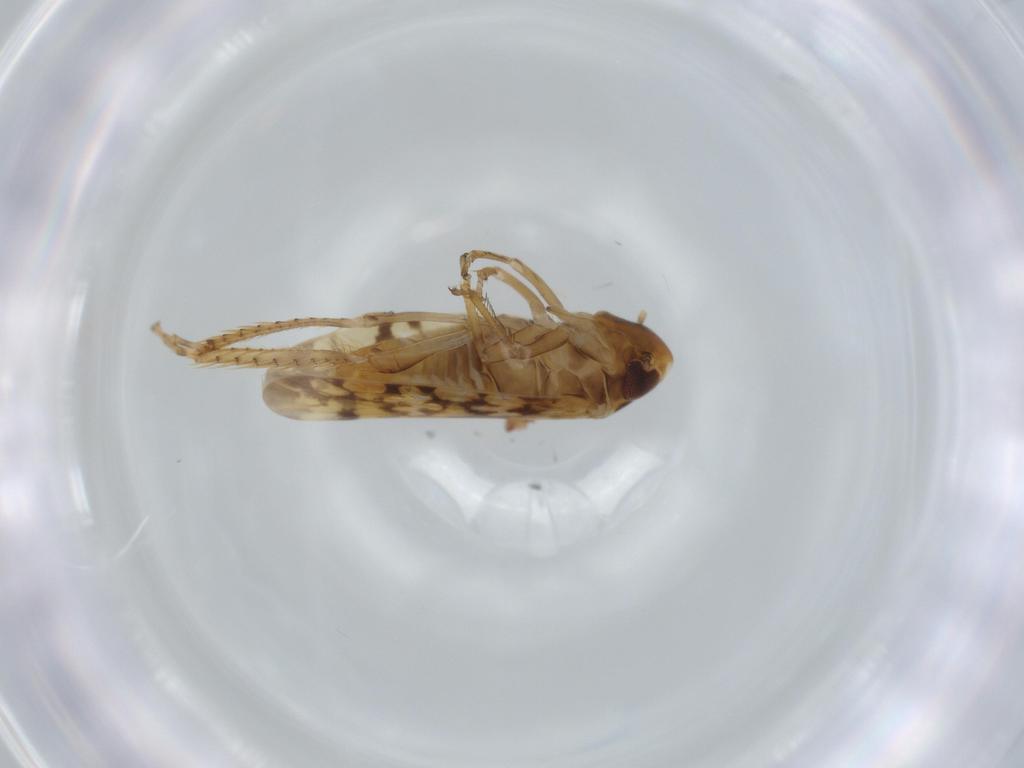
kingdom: Animalia
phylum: Arthropoda
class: Insecta
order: Hemiptera
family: Cicadellidae
